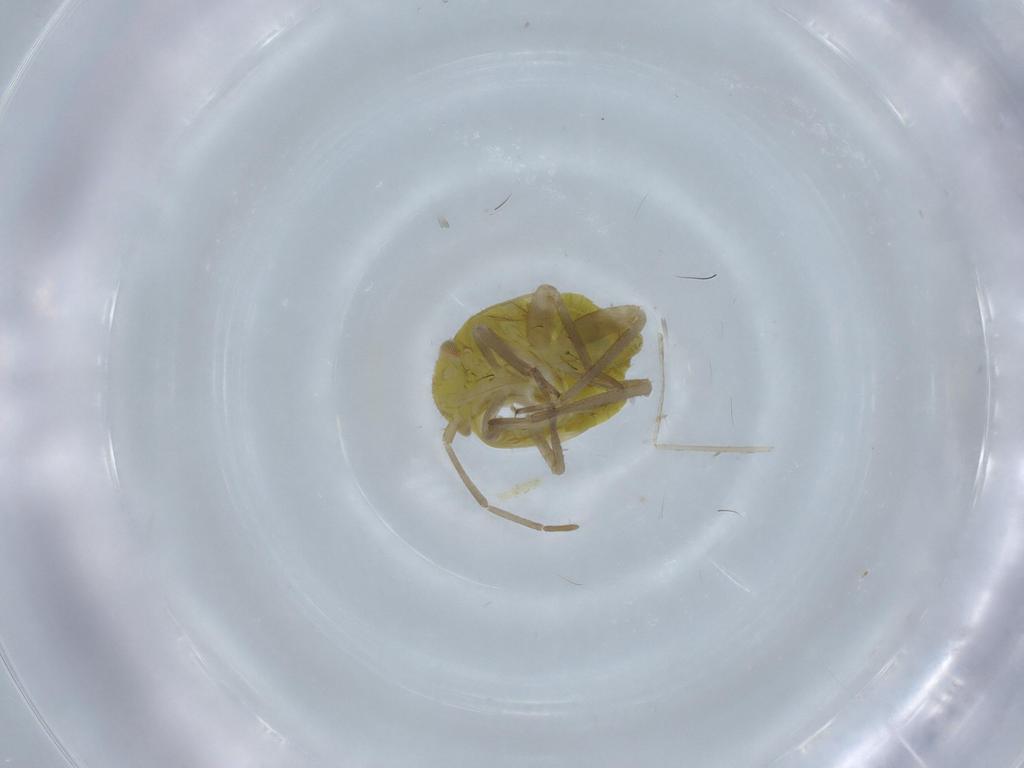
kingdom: Animalia
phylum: Arthropoda
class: Insecta
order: Hemiptera
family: Miridae
